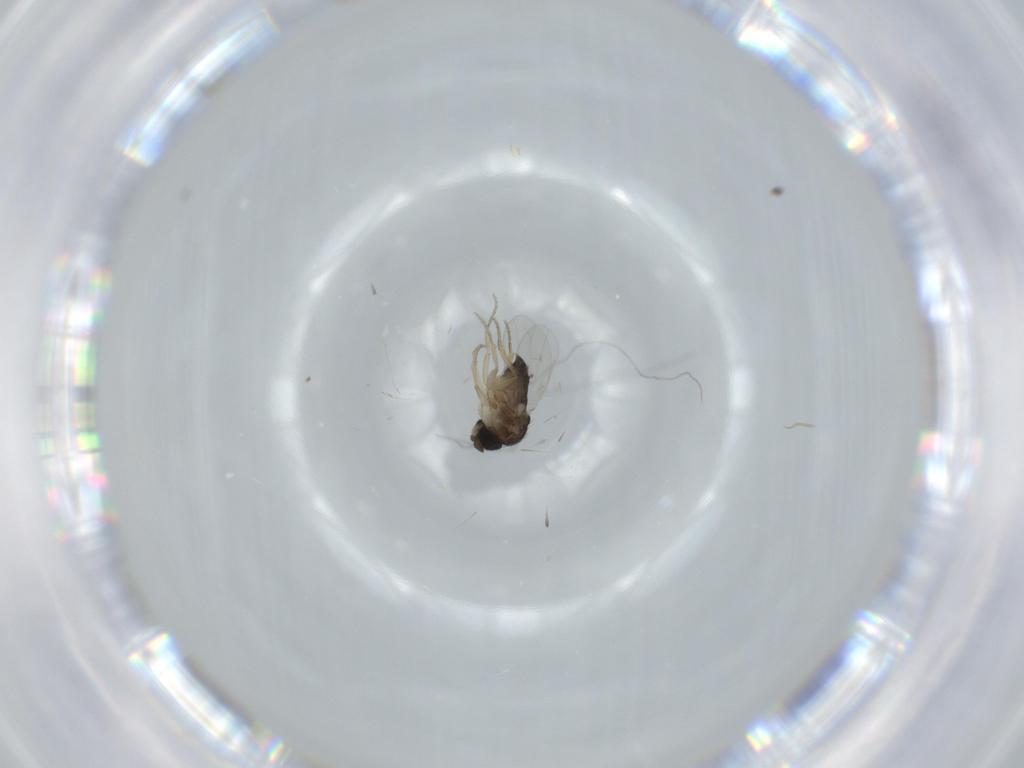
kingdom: Animalia
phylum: Arthropoda
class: Insecta
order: Diptera
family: Phoridae
